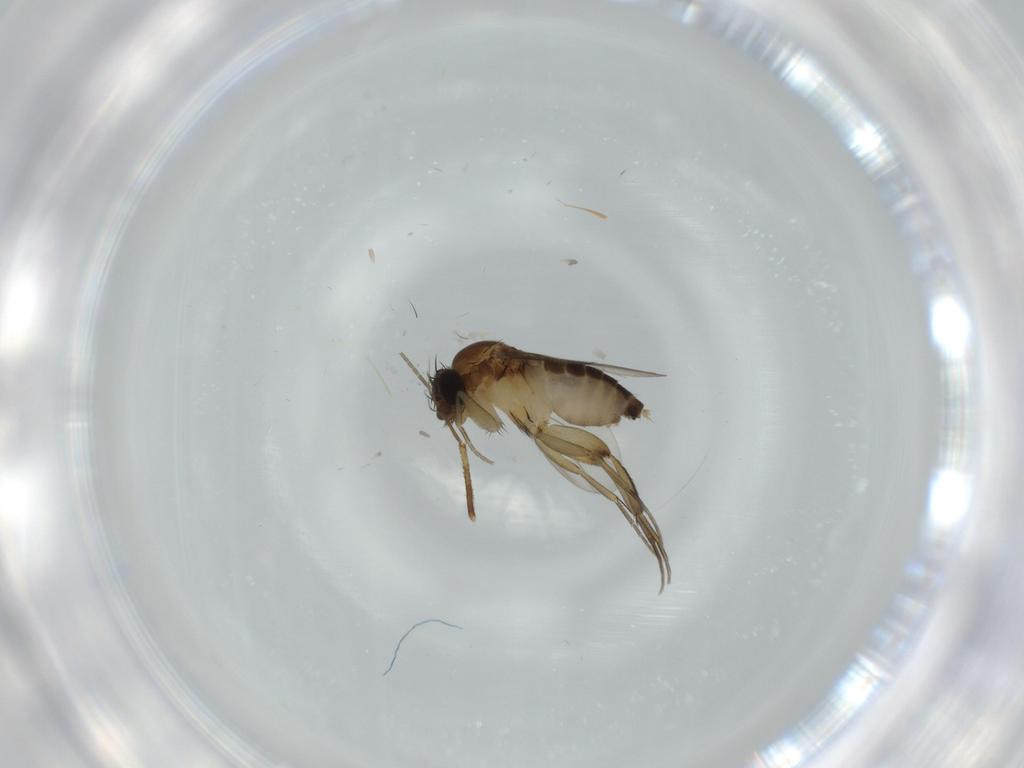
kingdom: Animalia
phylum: Arthropoda
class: Insecta
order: Diptera
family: Phoridae
